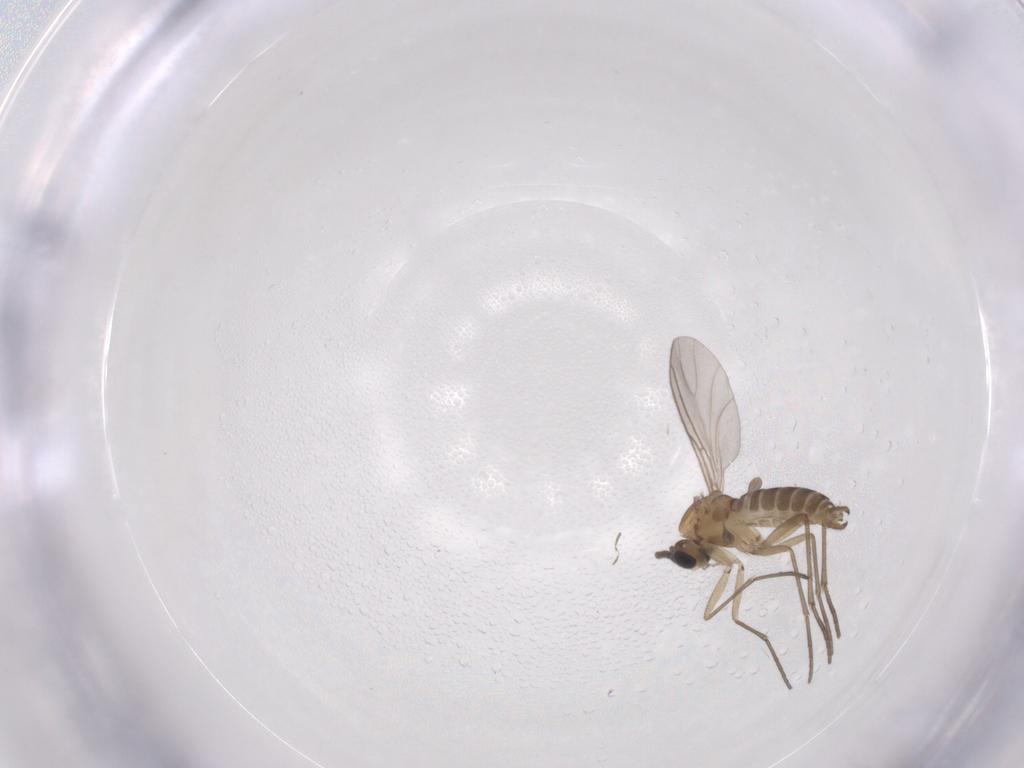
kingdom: Animalia
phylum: Arthropoda
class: Insecta
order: Diptera
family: Sciaridae
